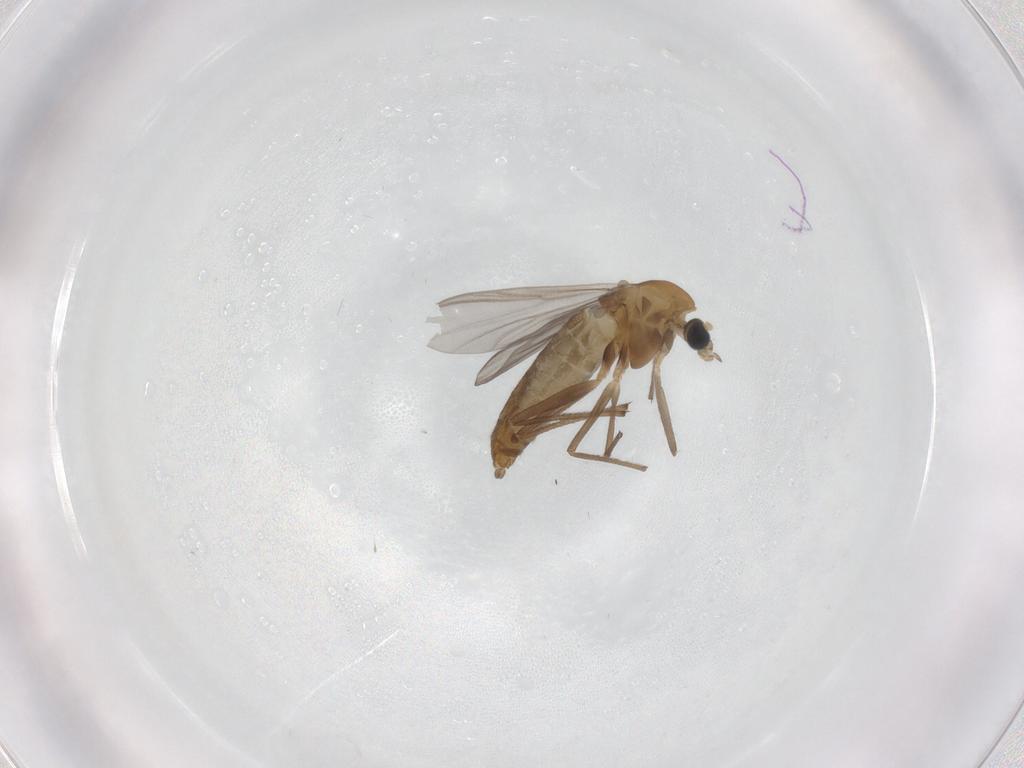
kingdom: Animalia
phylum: Arthropoda
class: Insecta
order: Diptera
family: Chironomidae
